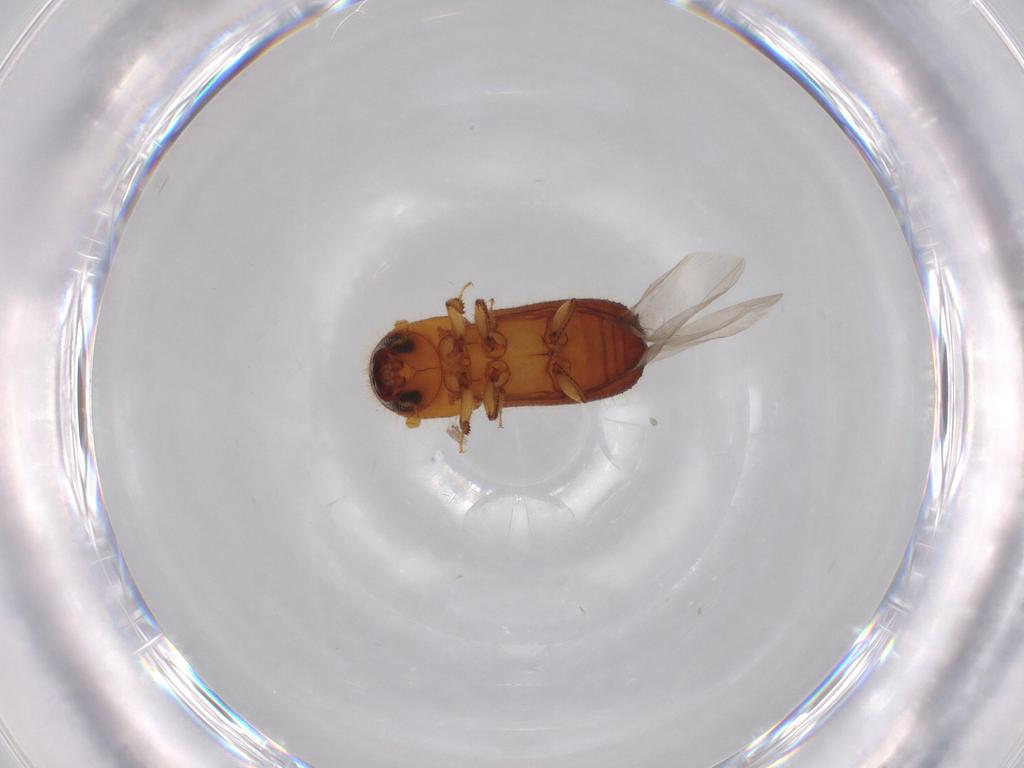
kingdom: Animalia
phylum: Arthropoda
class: Insecta
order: Coleoptera
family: Curculionidae
